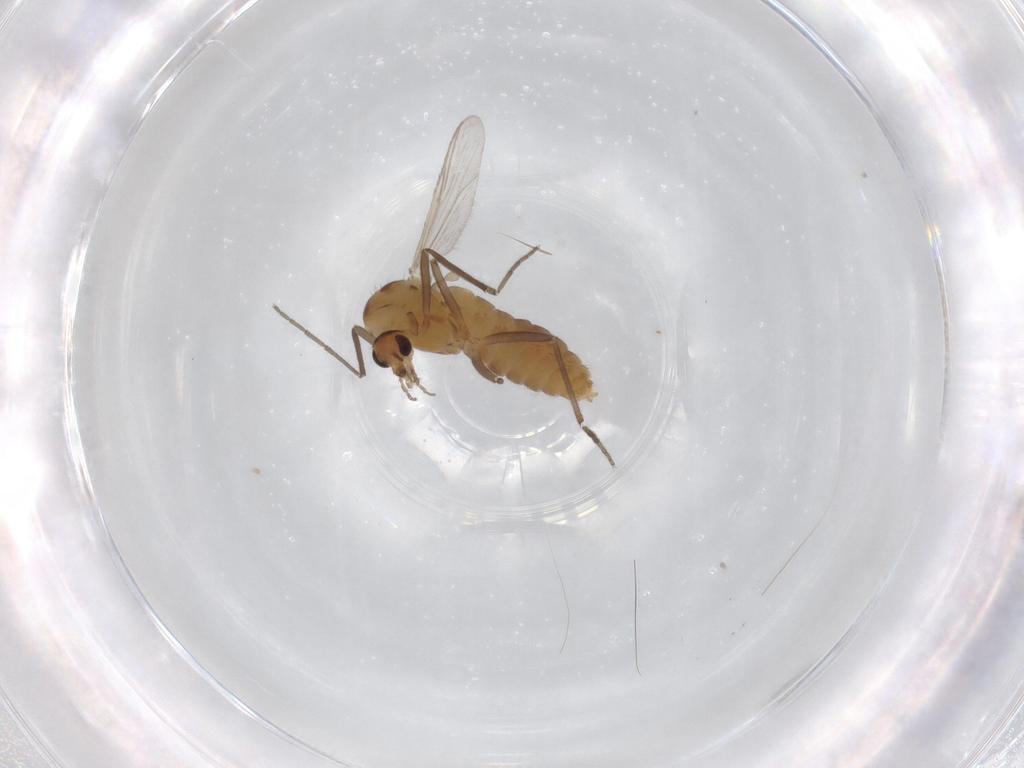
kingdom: Animalia
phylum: Arthropoda
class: Insecta
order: Diptera
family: Chironomidae
